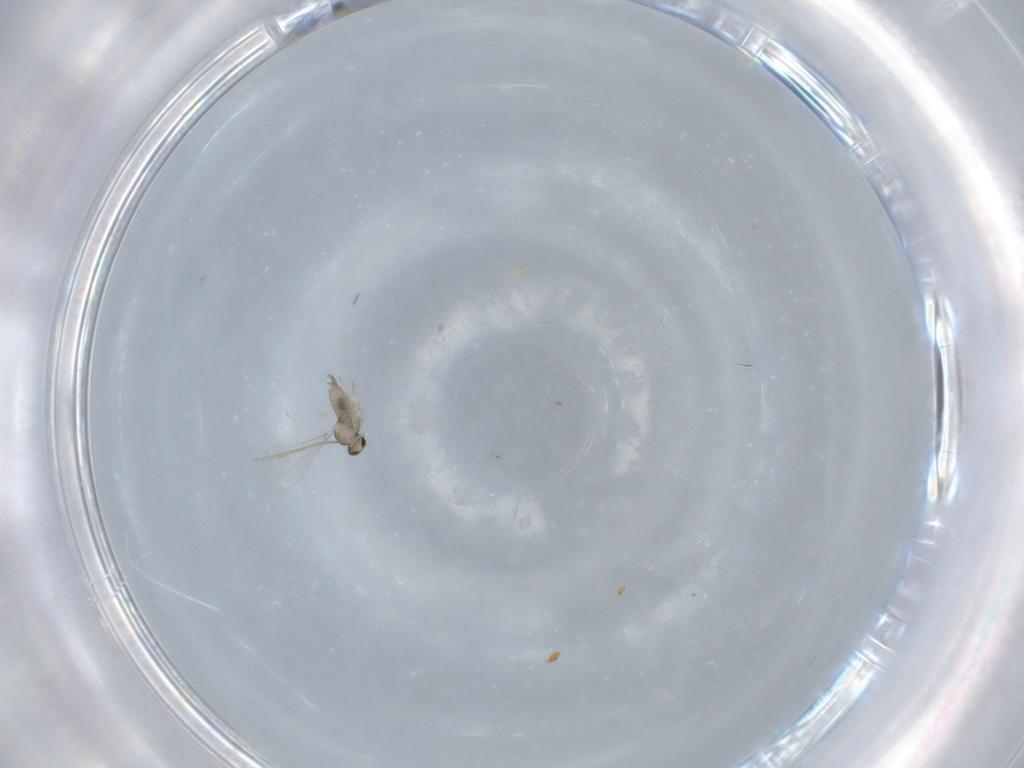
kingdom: Animalia
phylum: Arthropoda
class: Insecta
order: Diptera
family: Cecidomyiidae
